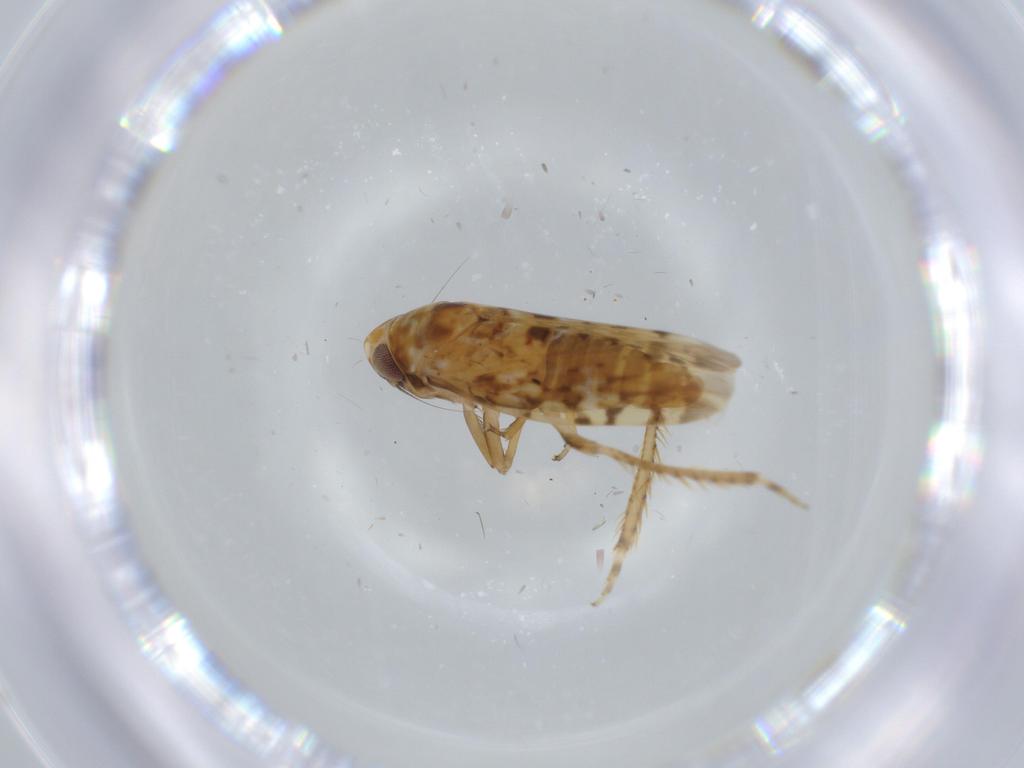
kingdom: Animalia
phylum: Arthropoda
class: Insecta
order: Hemiptera
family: Cicadellidae
